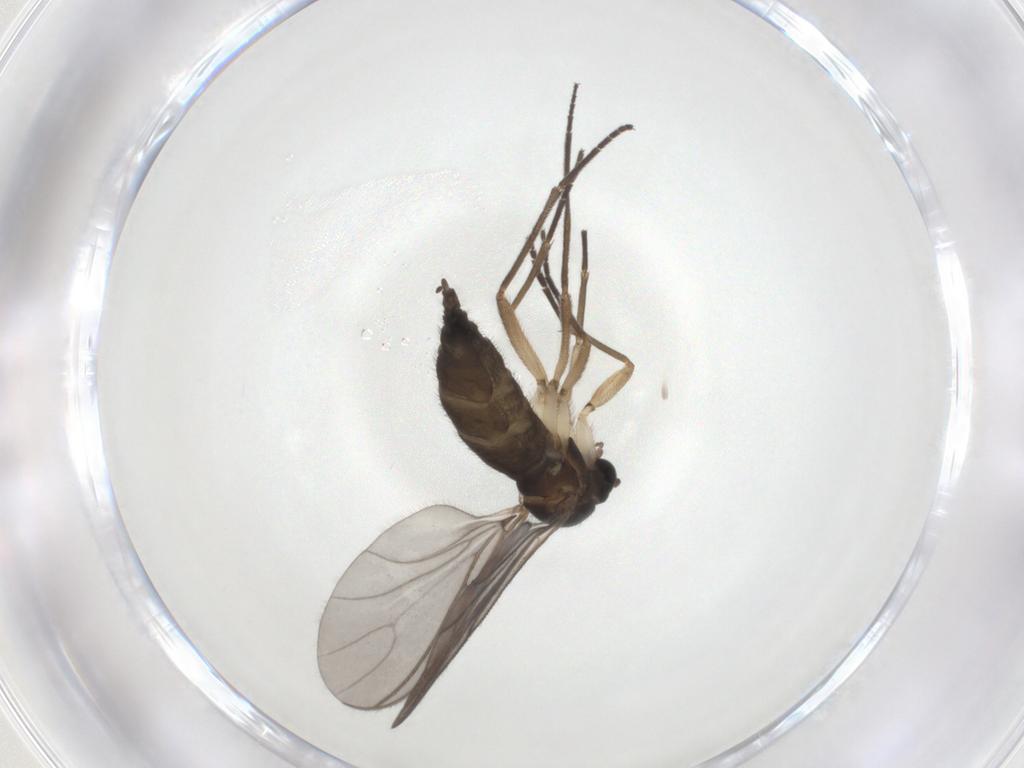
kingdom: Animalia
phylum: Arthropoda
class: Insecta
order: Diptera
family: Sciaridae
